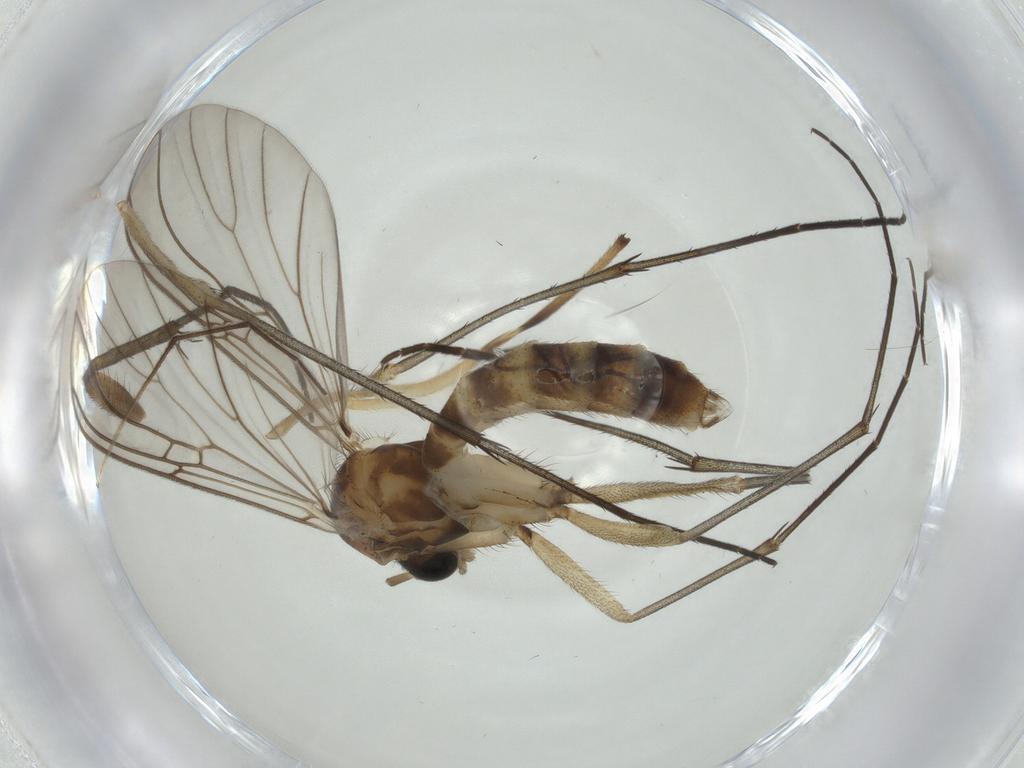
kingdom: Animalia
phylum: Arthropoda
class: Insecta
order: Diptera
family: Mycetophilidae
